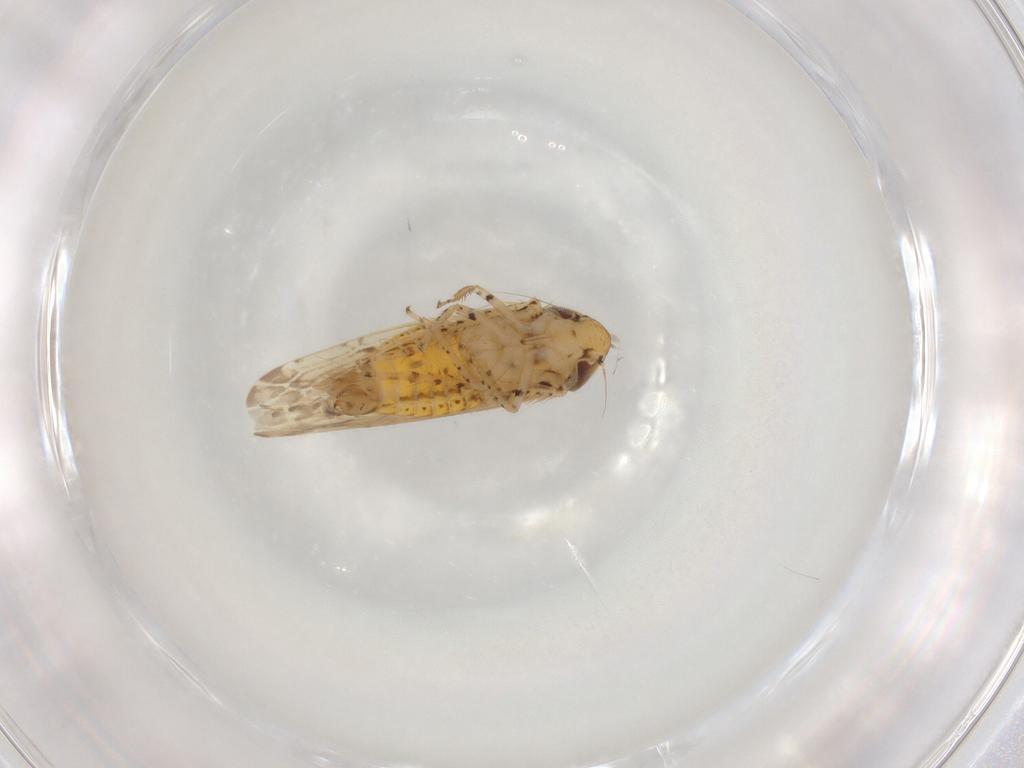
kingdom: Animalia
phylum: Arthropoda
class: Insecta
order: Hemiptera
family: Cicadellidae
